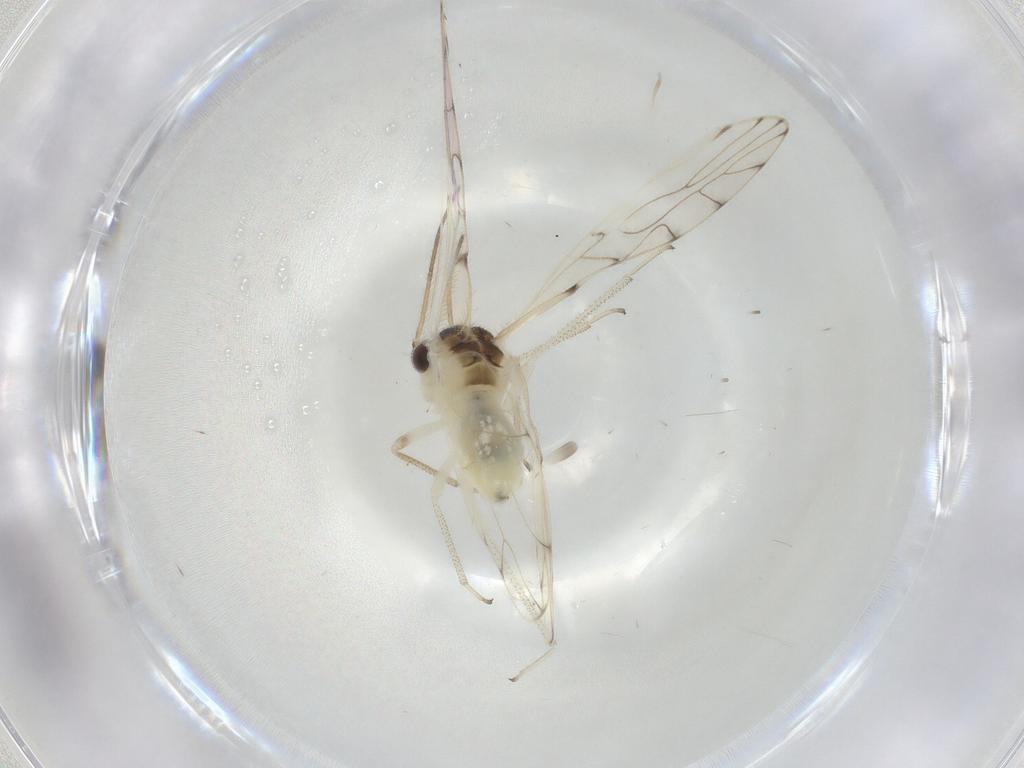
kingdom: Animalia
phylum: Arthropoda
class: Insecta
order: Psocodea
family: Philotarsidae
